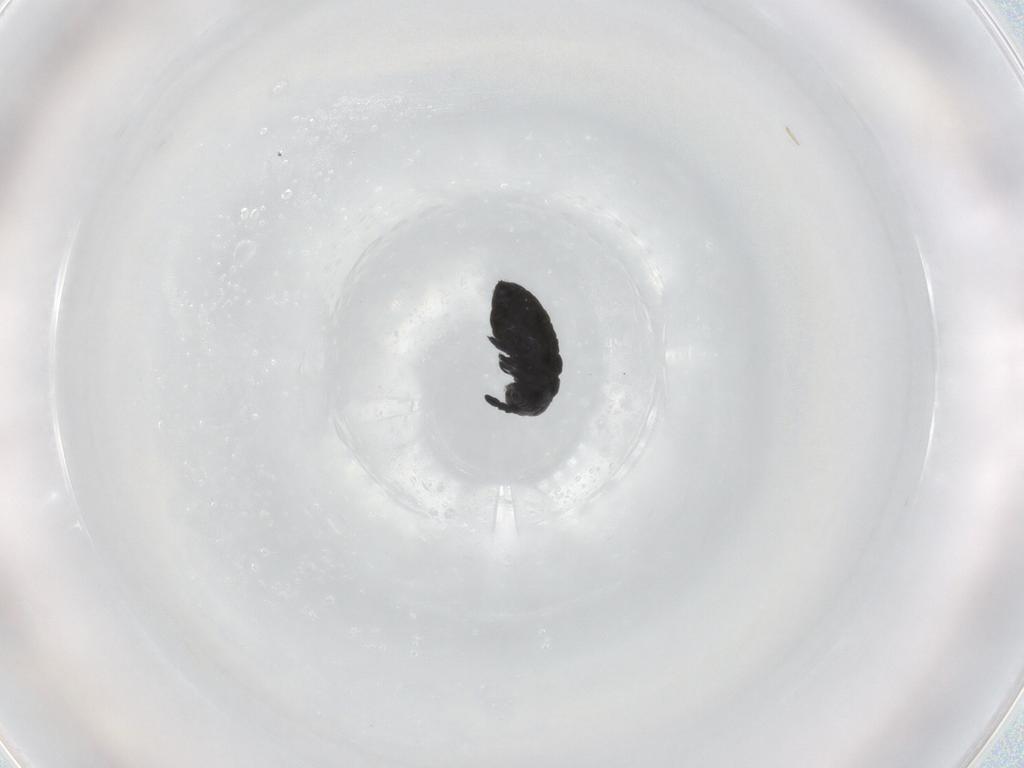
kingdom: Animalia
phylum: Arthropoda
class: Collembola
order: Poduromorpha
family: Hypogastruridae
